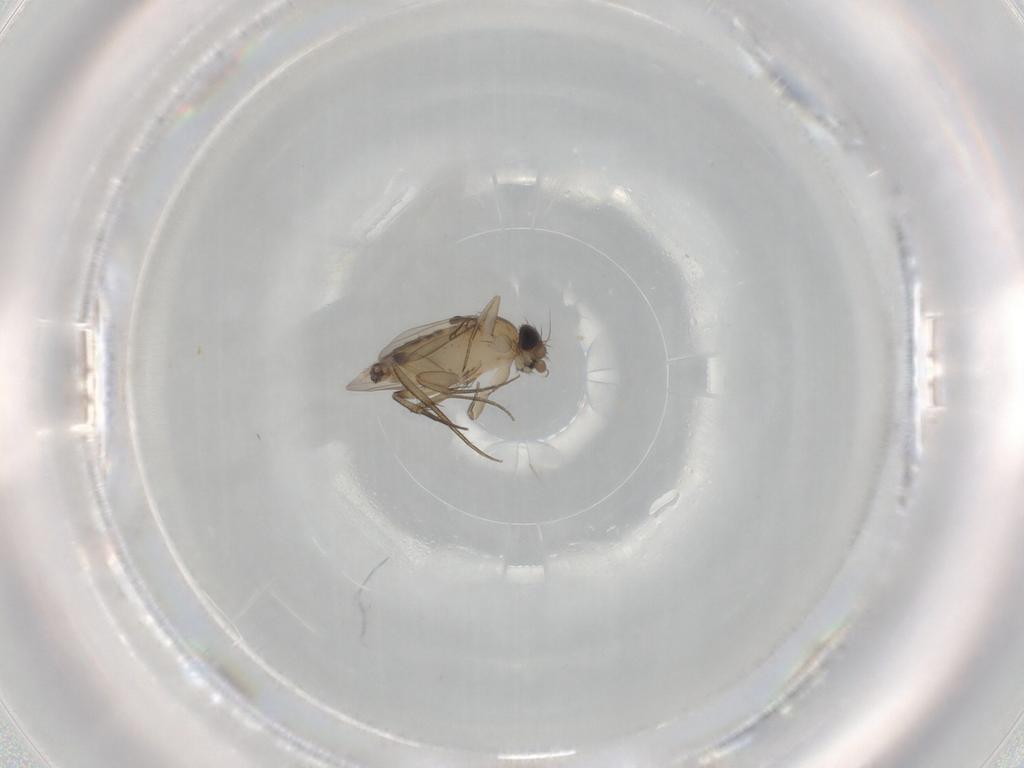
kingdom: Animalia
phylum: Arthropoda
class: Insecta
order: Diptera
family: Phoridae
